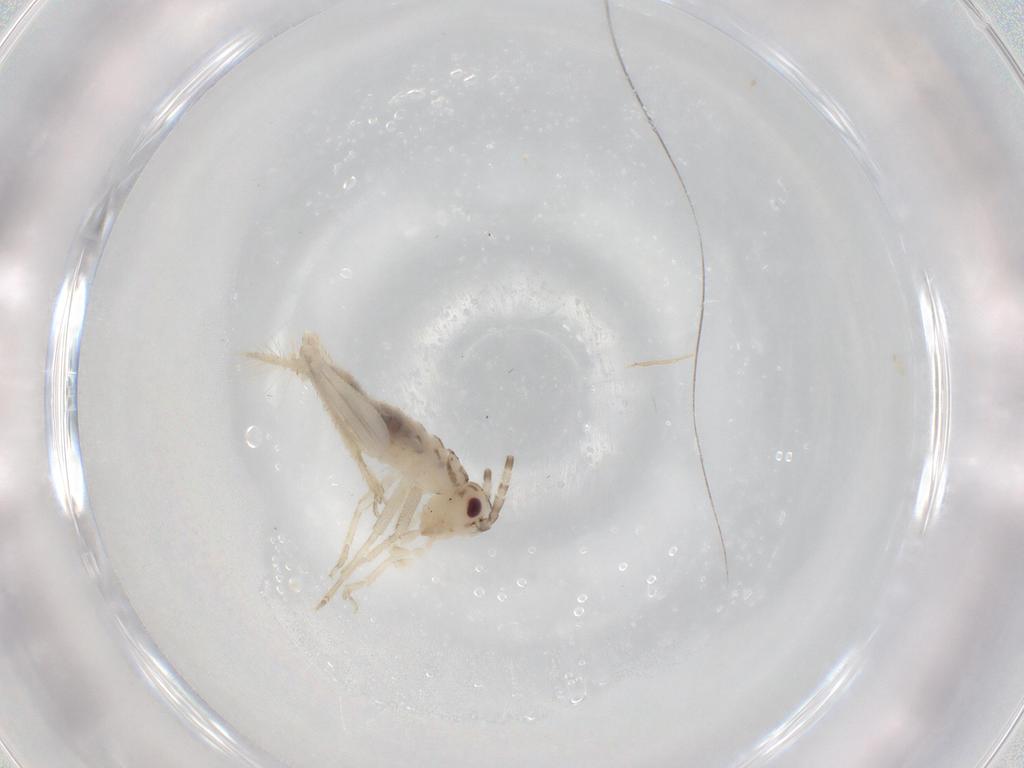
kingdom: Animalia
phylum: Arthropoda
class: Insecta
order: Orthoptera
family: Trigonidiidae
